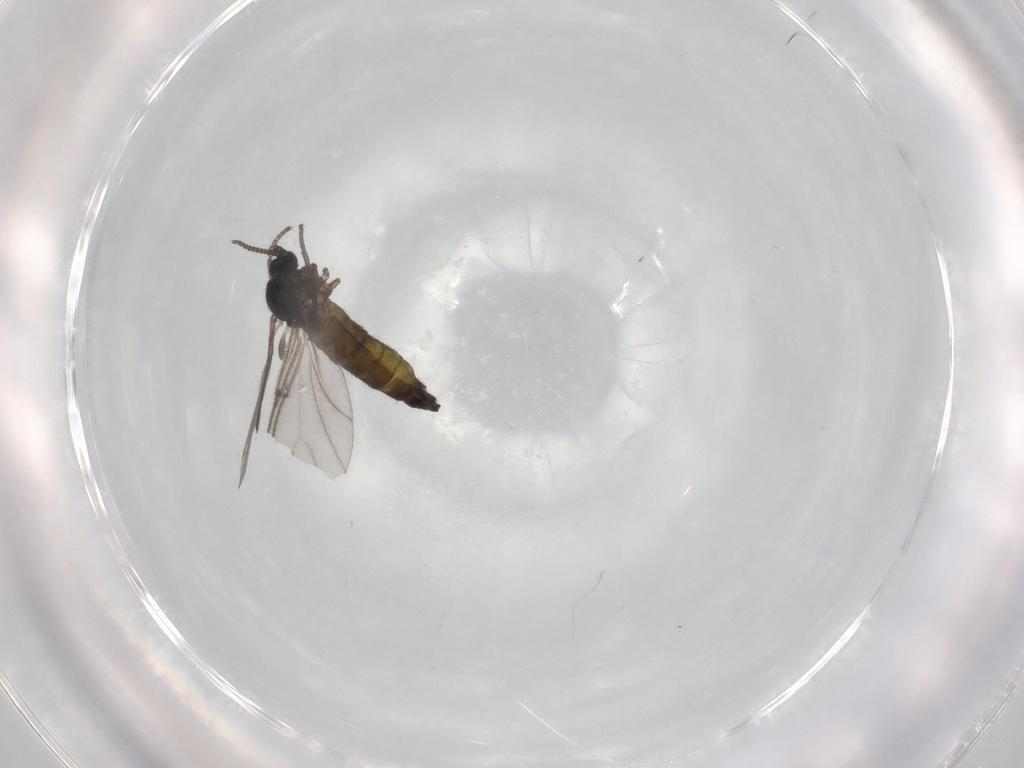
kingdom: Animalia
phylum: Arthropoda
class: Insecta
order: Diptera
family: Sciaridae
